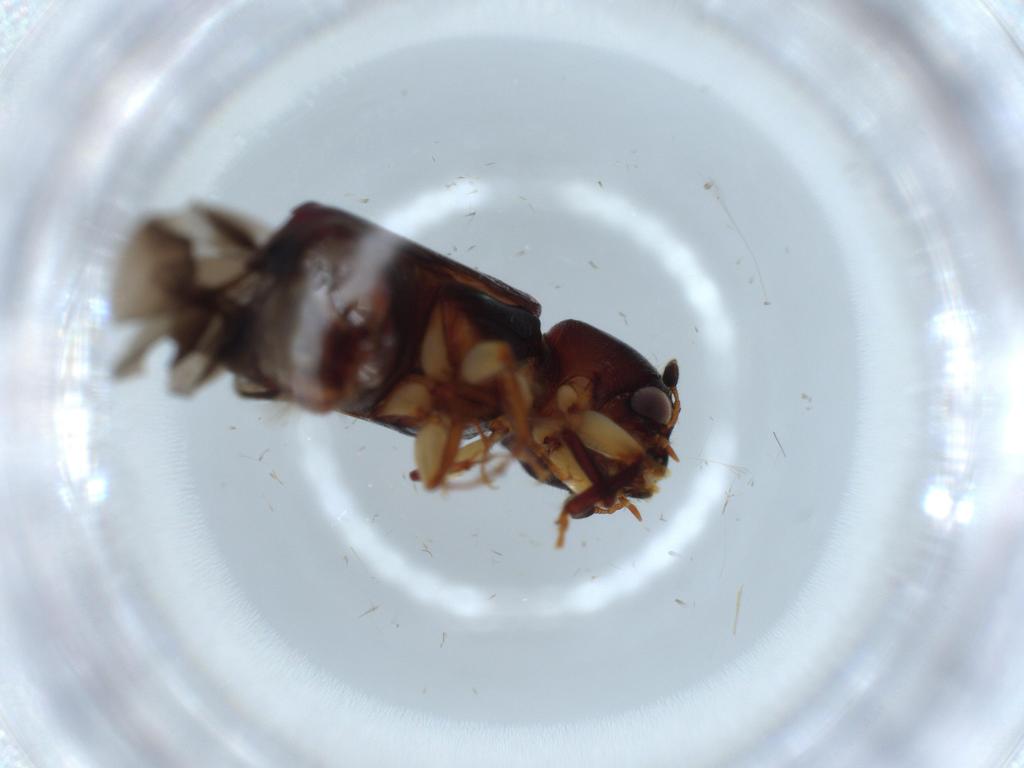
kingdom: Animalia
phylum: Arthropoda
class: Insecta
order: Coleoptera
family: Bostrichidae
